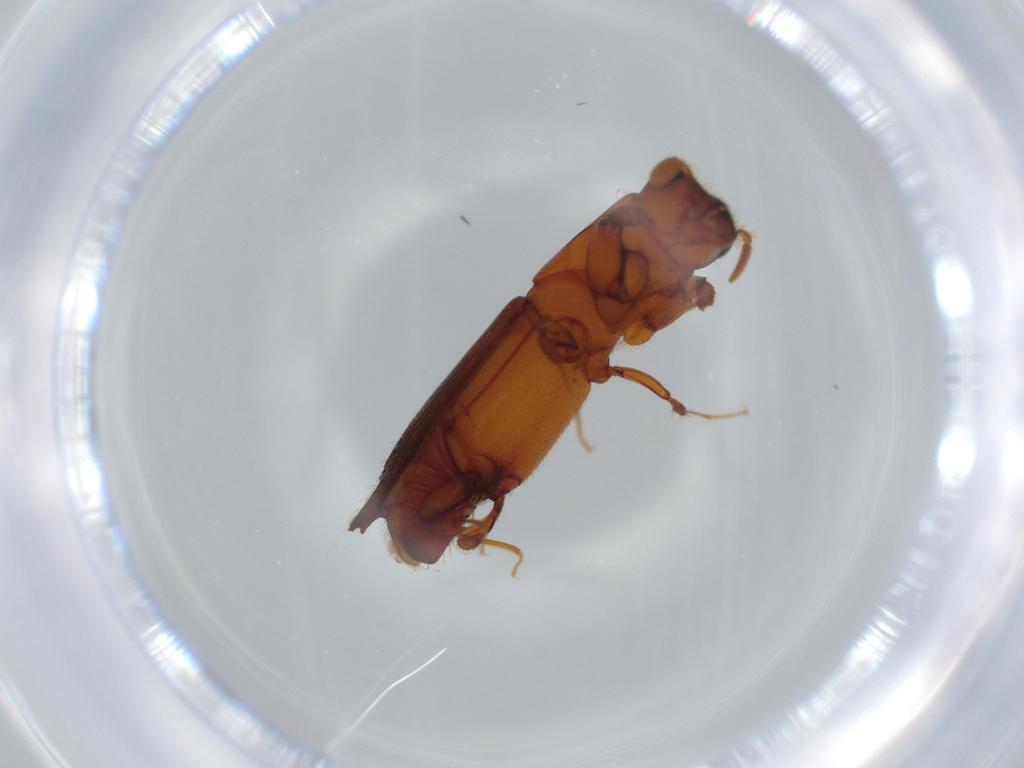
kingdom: Animalia
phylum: Arthropoda
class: Insecta
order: Coleoptera
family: Curculionidae
